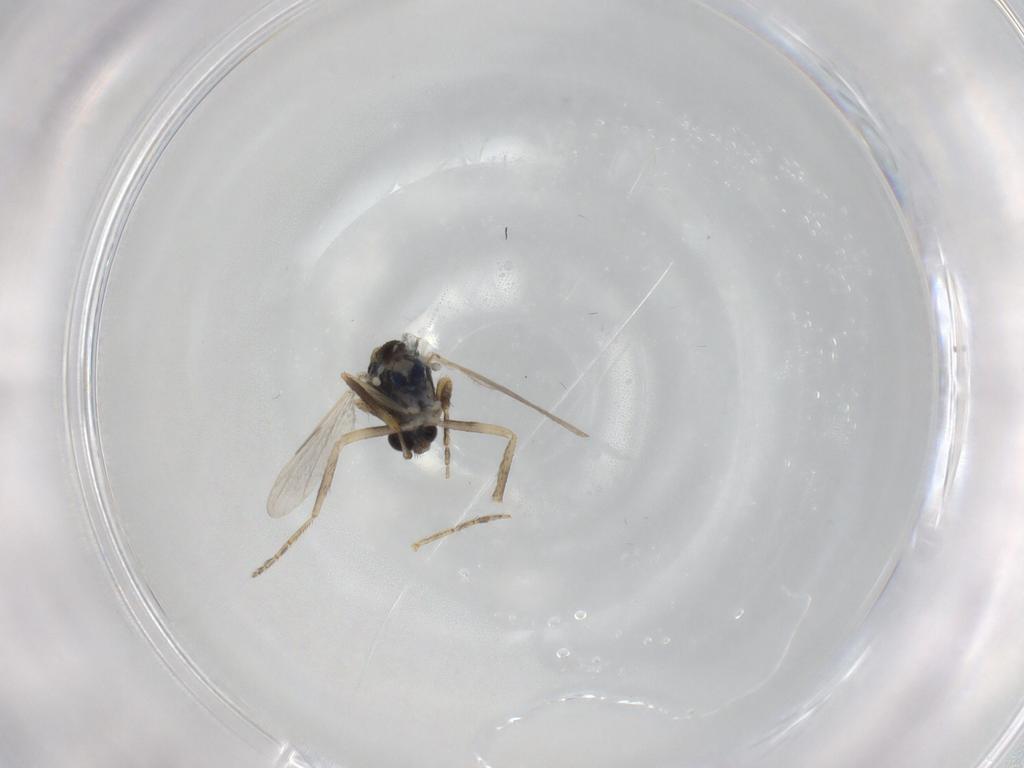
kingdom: Animalia
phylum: Arthropoda
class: Insecta
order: Diptera
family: Ceratopogonidae
